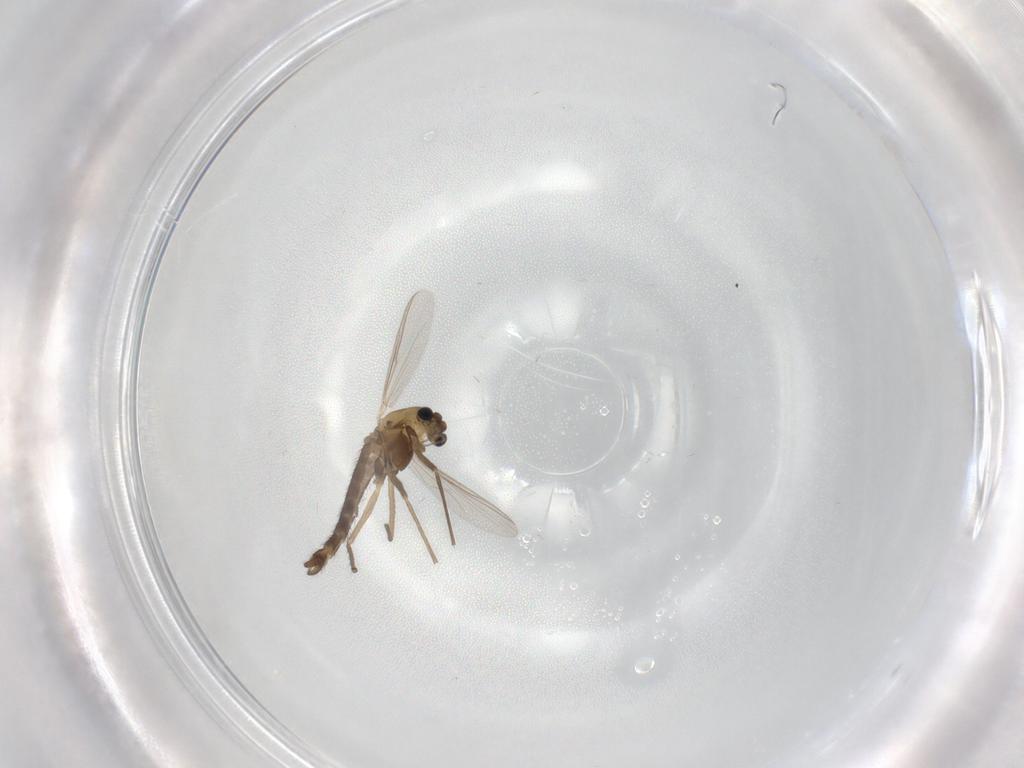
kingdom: Animalia
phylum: Arthropoda
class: Insecta
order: Diptera
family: Chironomidae
